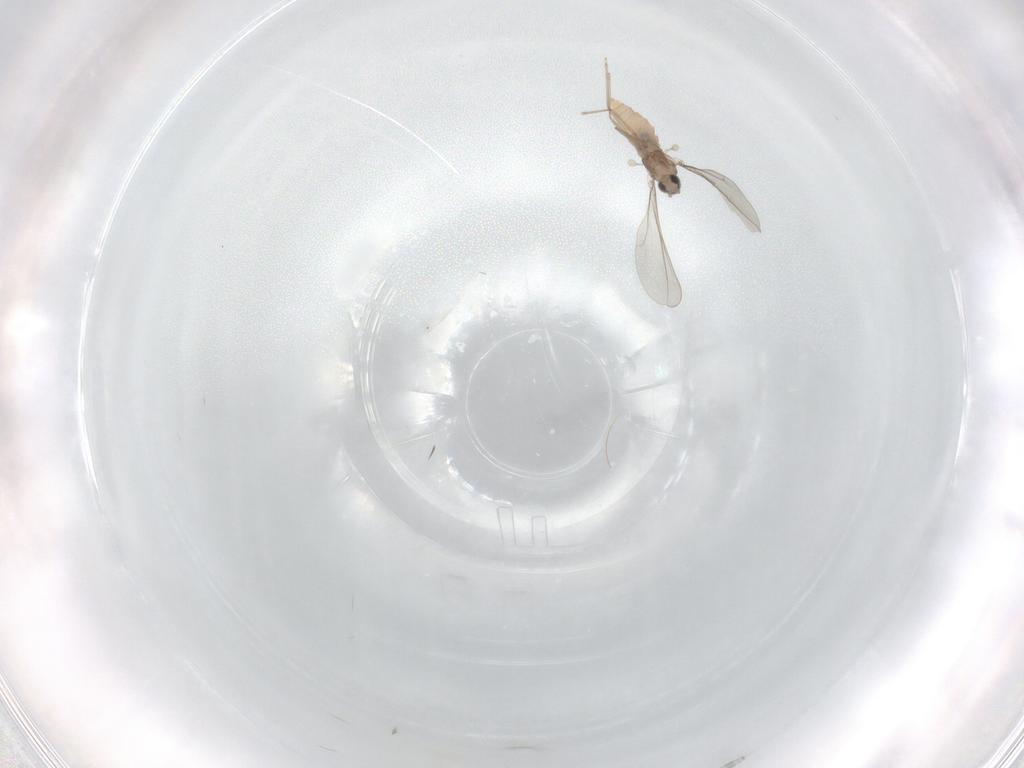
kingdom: Animalia
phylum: Arthropoda
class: Insecta
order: Diptera
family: Cecidomyiidae
